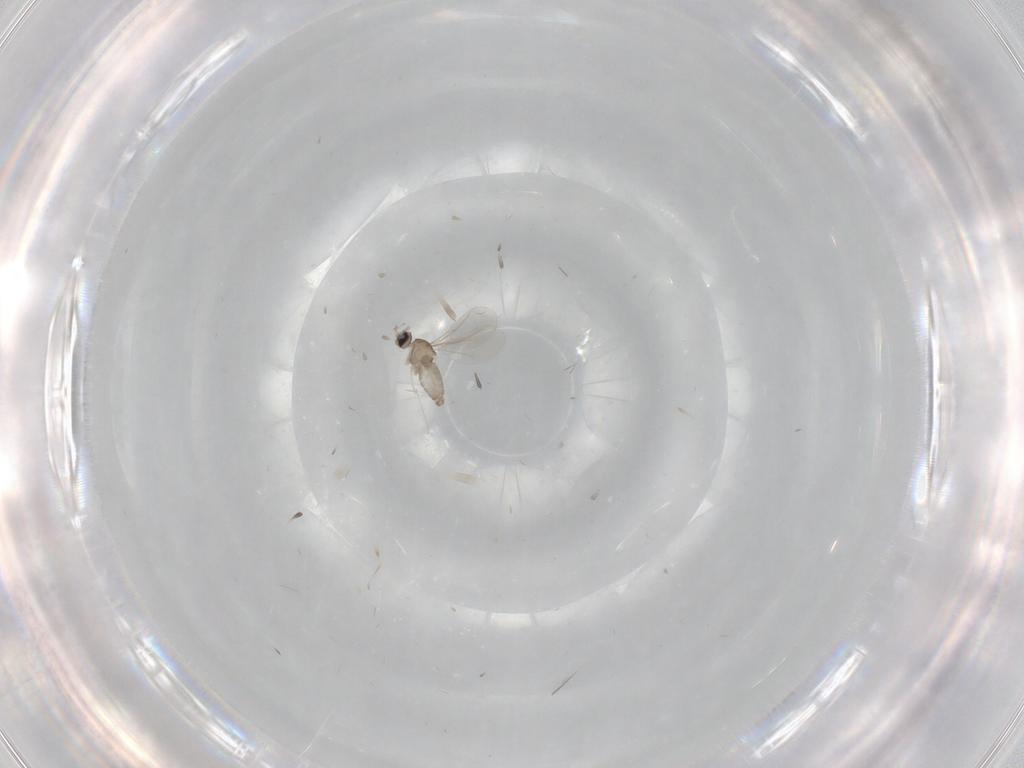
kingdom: Animalia
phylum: Arthropoda
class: Insecta
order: Diptera
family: Cecidomyiidae
